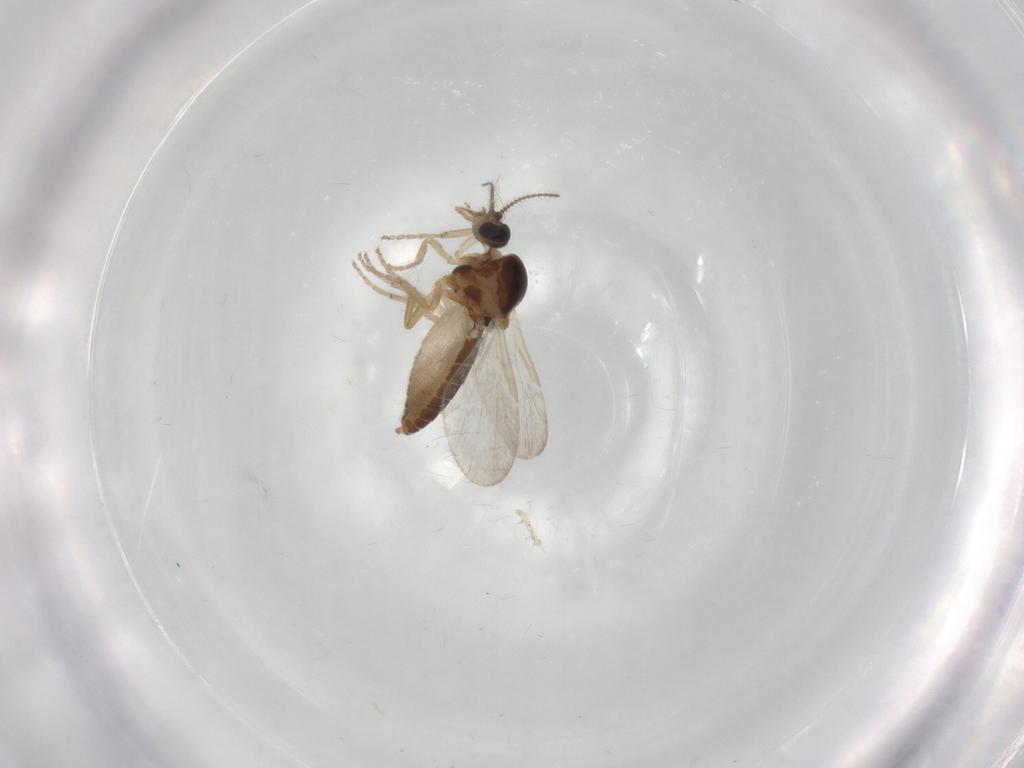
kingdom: Animalia
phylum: Arthropoda
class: Insecta
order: Diptera
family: Ceratopogonidae
